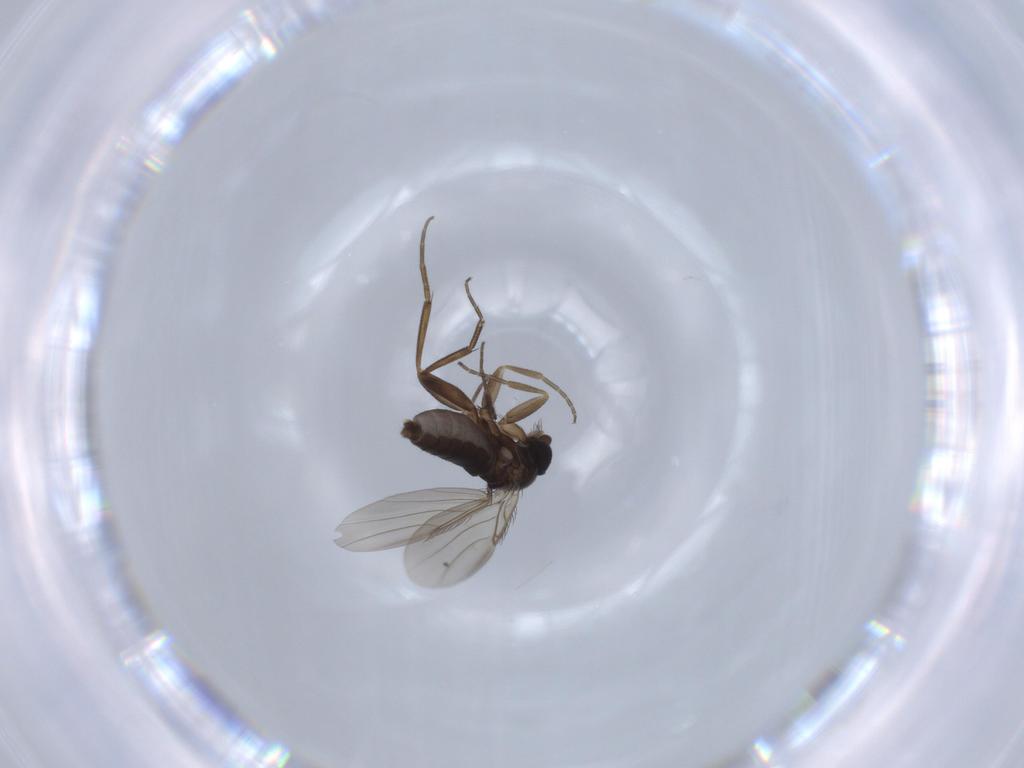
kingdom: Animalia
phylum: Arthropoda
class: Insecta
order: Diptera
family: Phoridae
